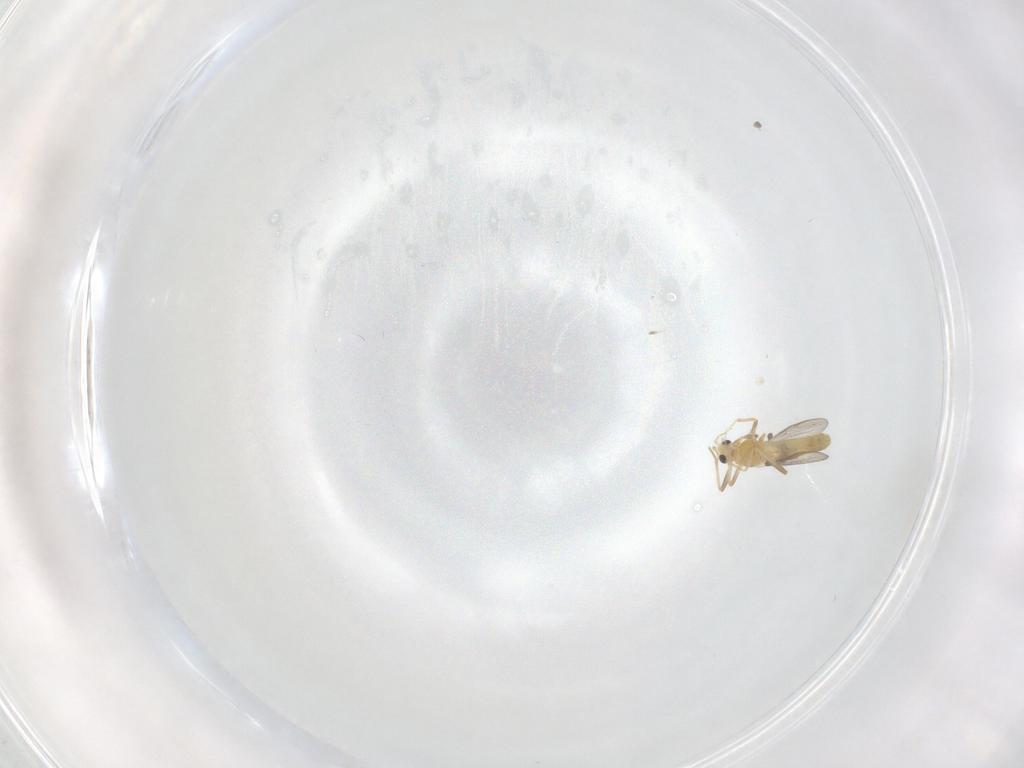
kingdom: Animalia
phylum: Arthropoda
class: Insecta
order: Diptera
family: Chironomidae
